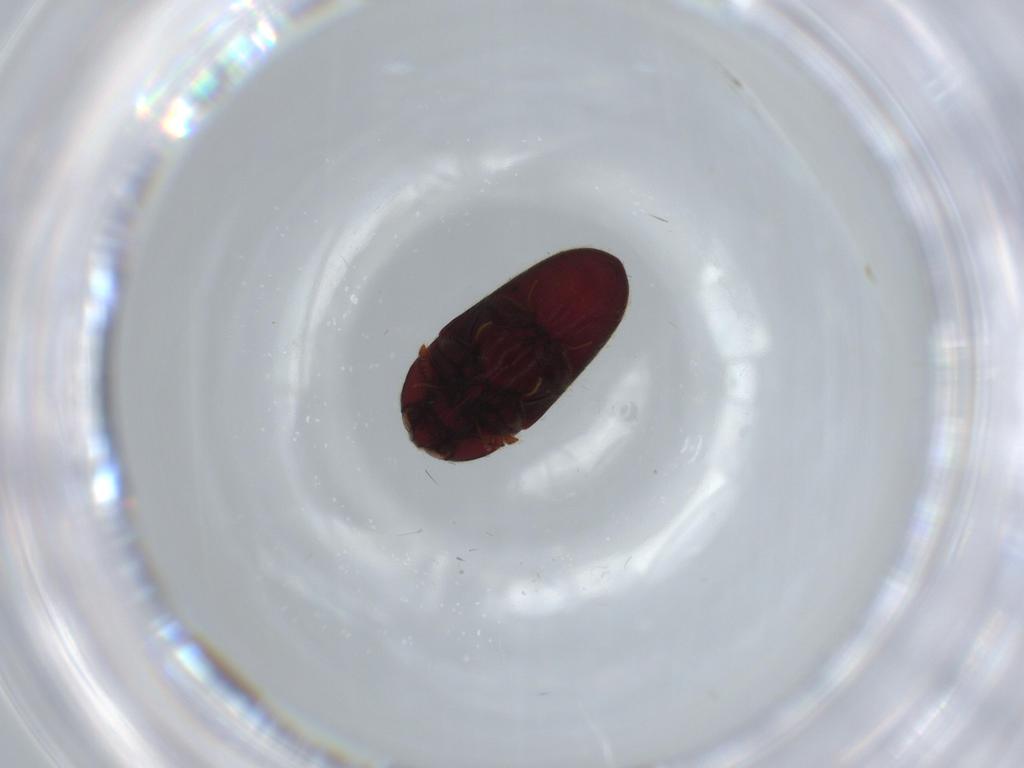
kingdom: Animalia
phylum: Arthropoda
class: Insecta
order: Coleoptera
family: Throscidae
